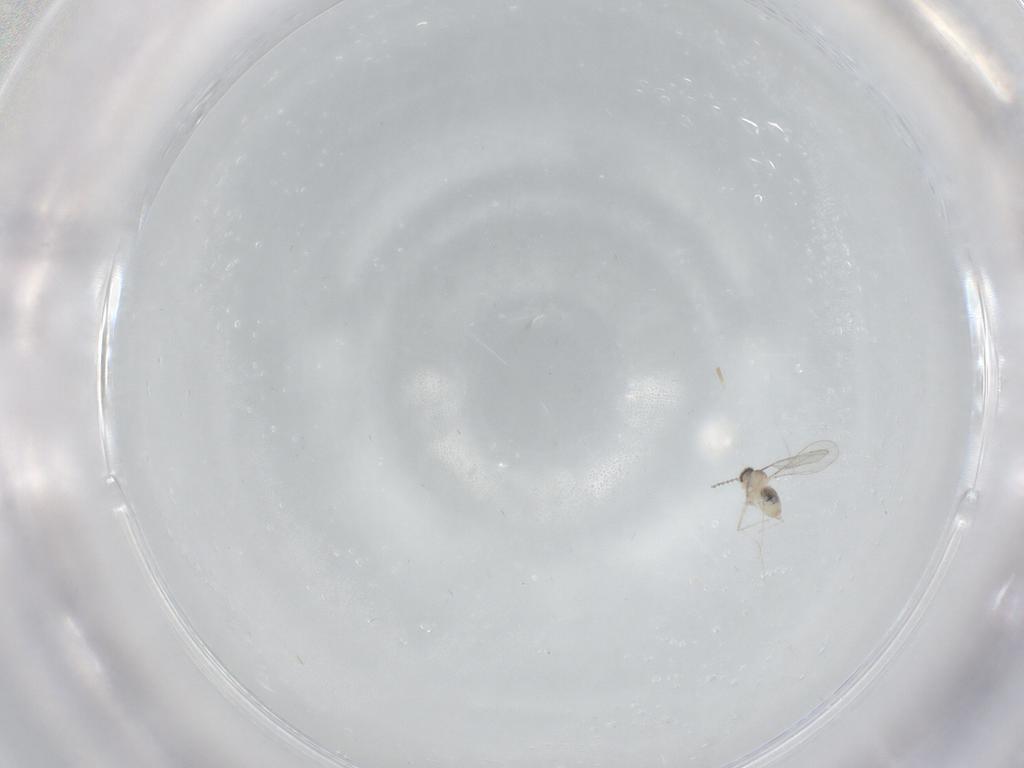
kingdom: Animalia
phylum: Arthropoda
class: Insecta
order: Diptera
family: Cecidomyiidae
